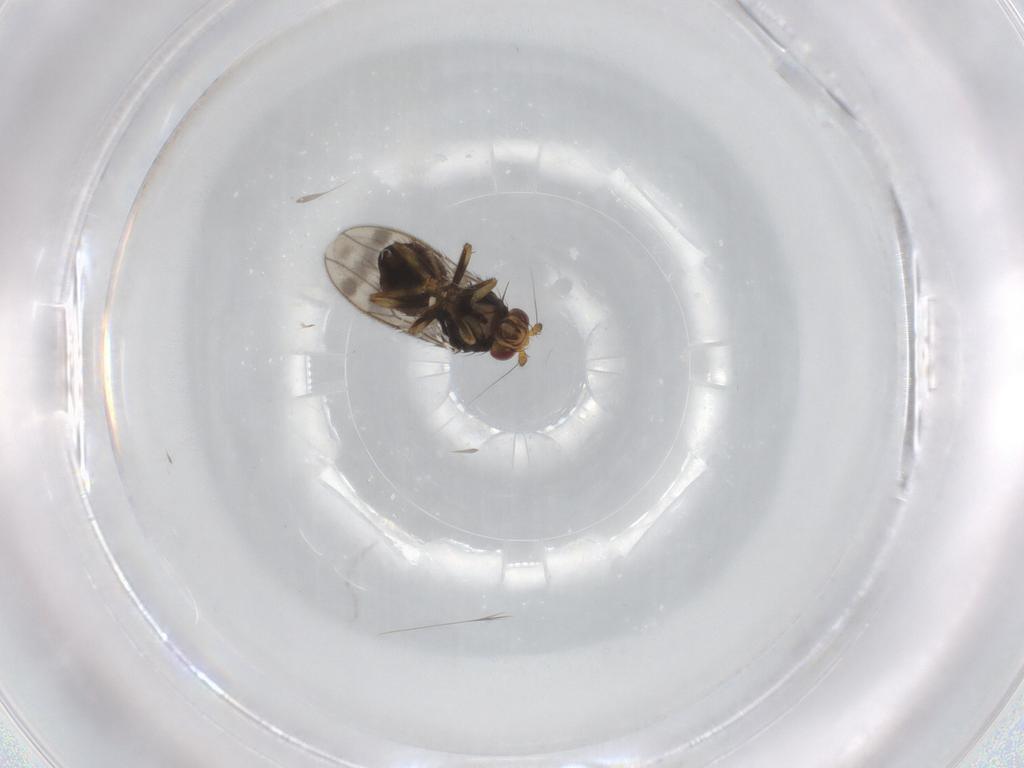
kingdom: Animalia
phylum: Arthropoda
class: Insecta
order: Diptera
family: Sphaeroceridae
